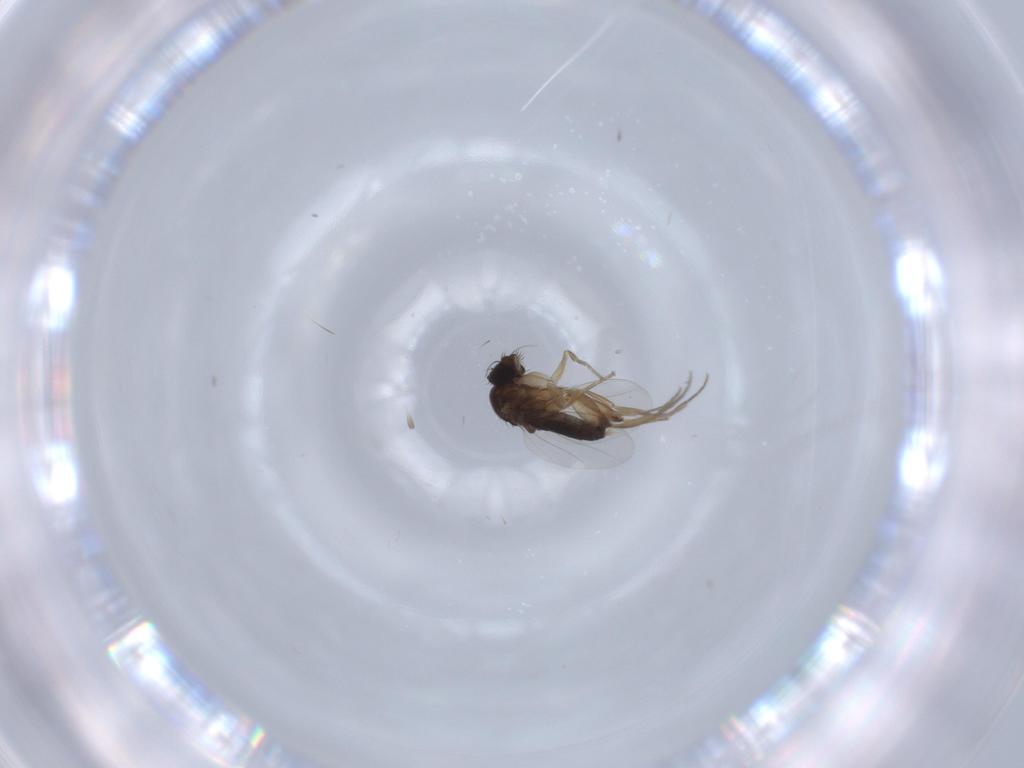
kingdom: Animalia
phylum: Arthropoda
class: Insecta
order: Diptera
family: Phoridae
